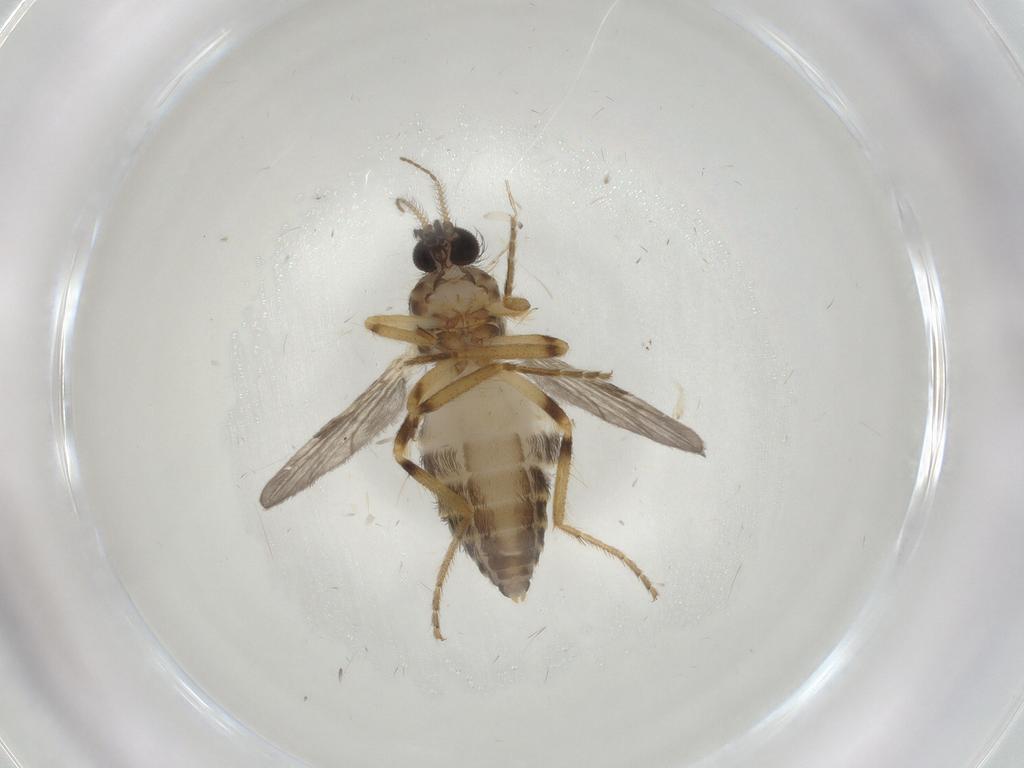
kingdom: Animalia
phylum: Arthropoda
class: Insecta
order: Diptera
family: Ceratopogonidae
